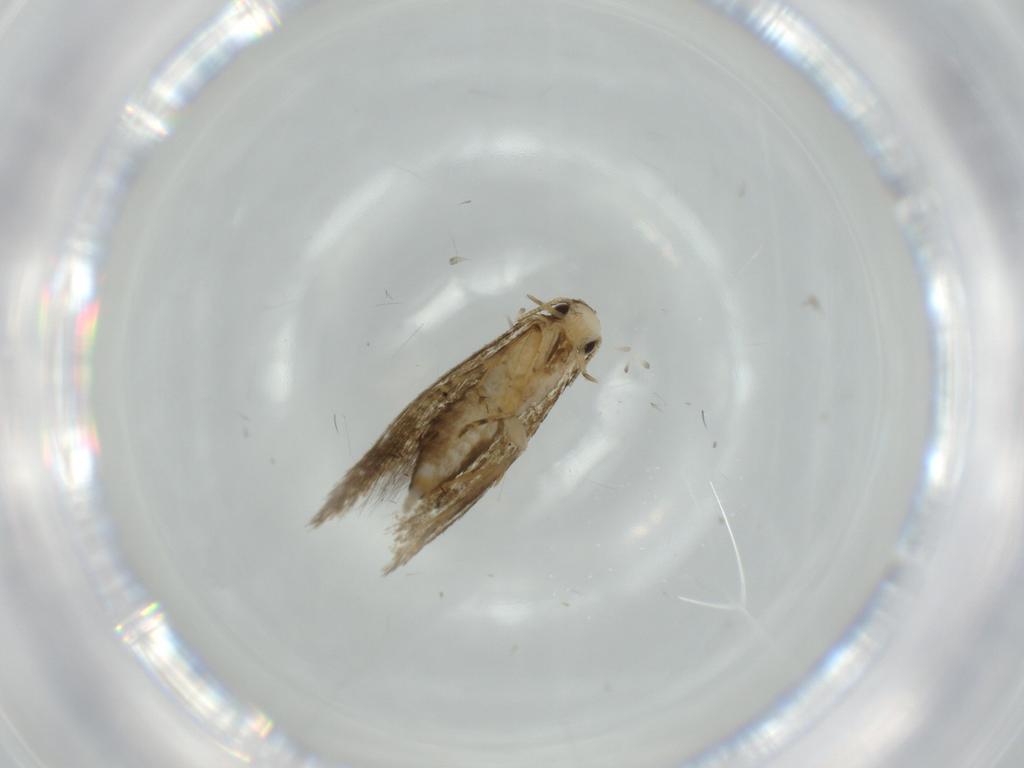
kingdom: Animalia
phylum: Arthropoda
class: Insecta
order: Lepidoptera
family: Tineidae
